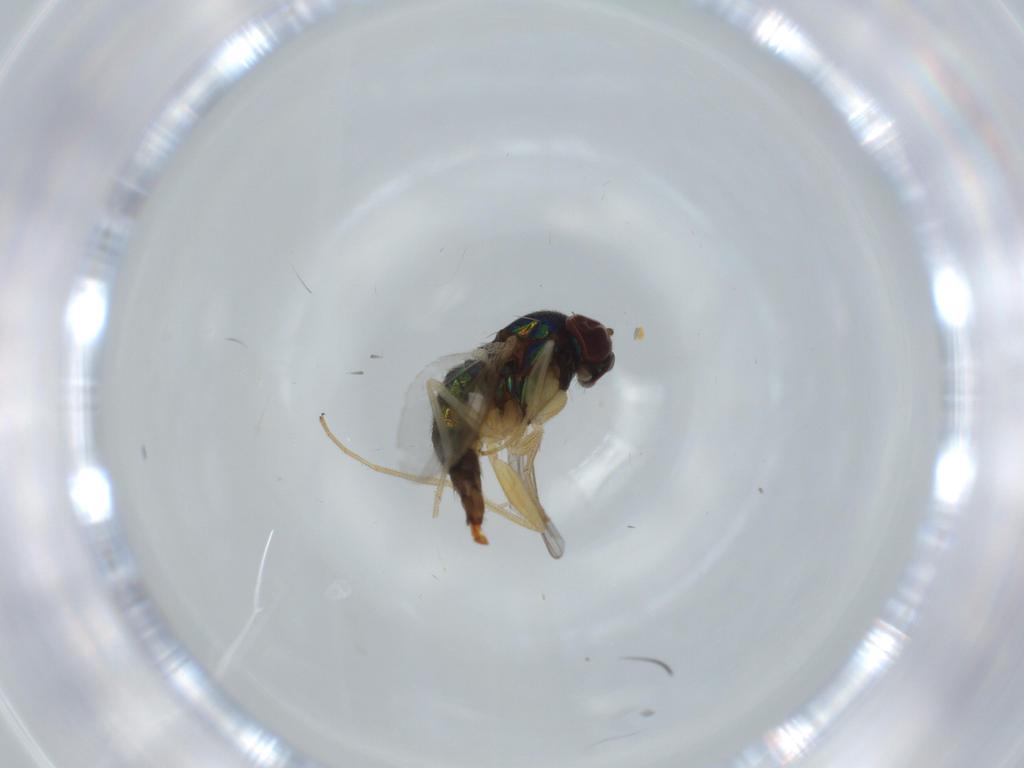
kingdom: Animalia
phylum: Arthropoda
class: Insecta
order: Diptera
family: Dolichopodidae
